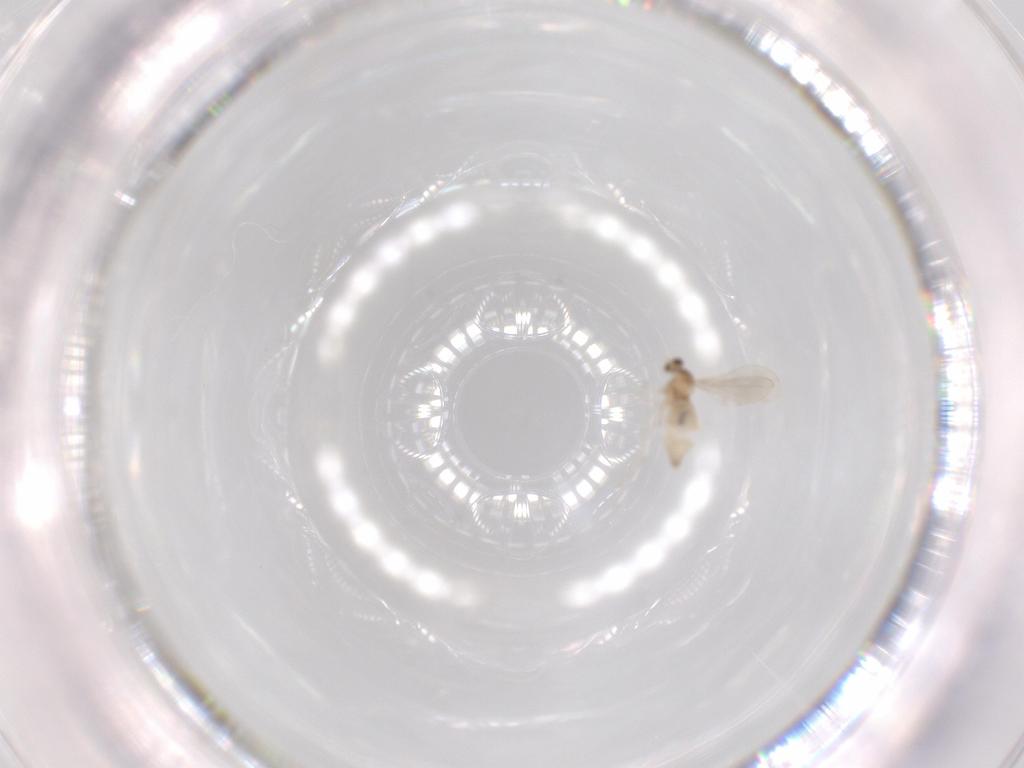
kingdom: Animalia
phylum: Arthropoda
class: Insecta
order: Diptera
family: Cecidomyiidae
